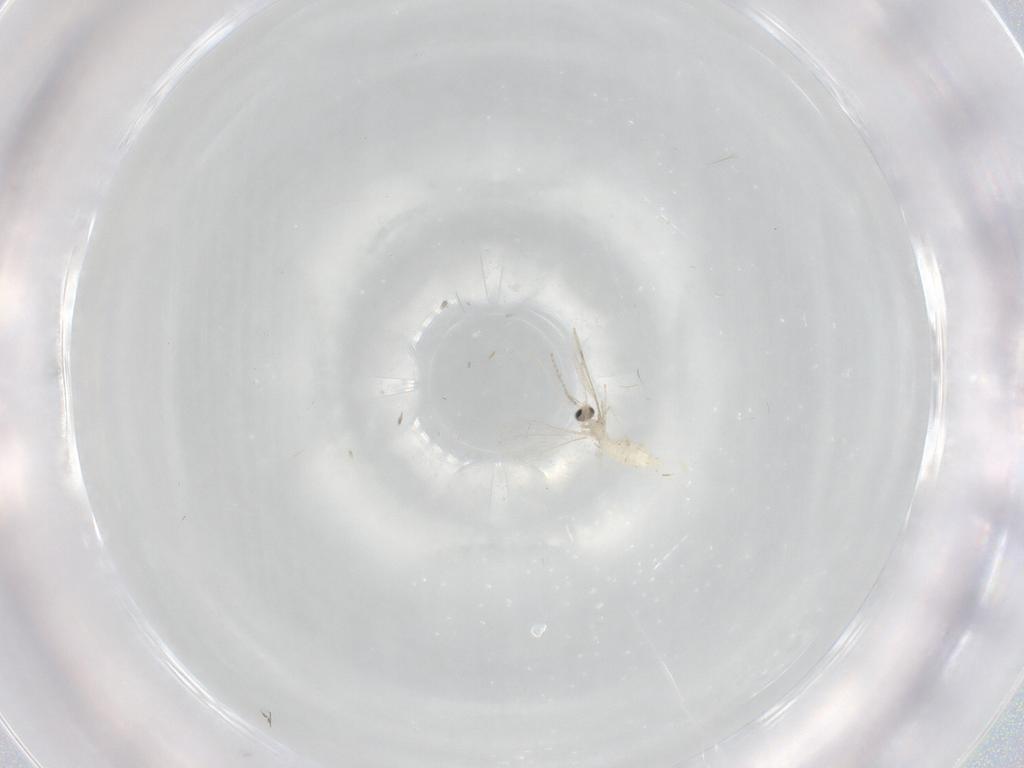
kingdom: Animalia
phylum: Arthropoda
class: Insecta
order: Diptera
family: Cecidomyiidae
